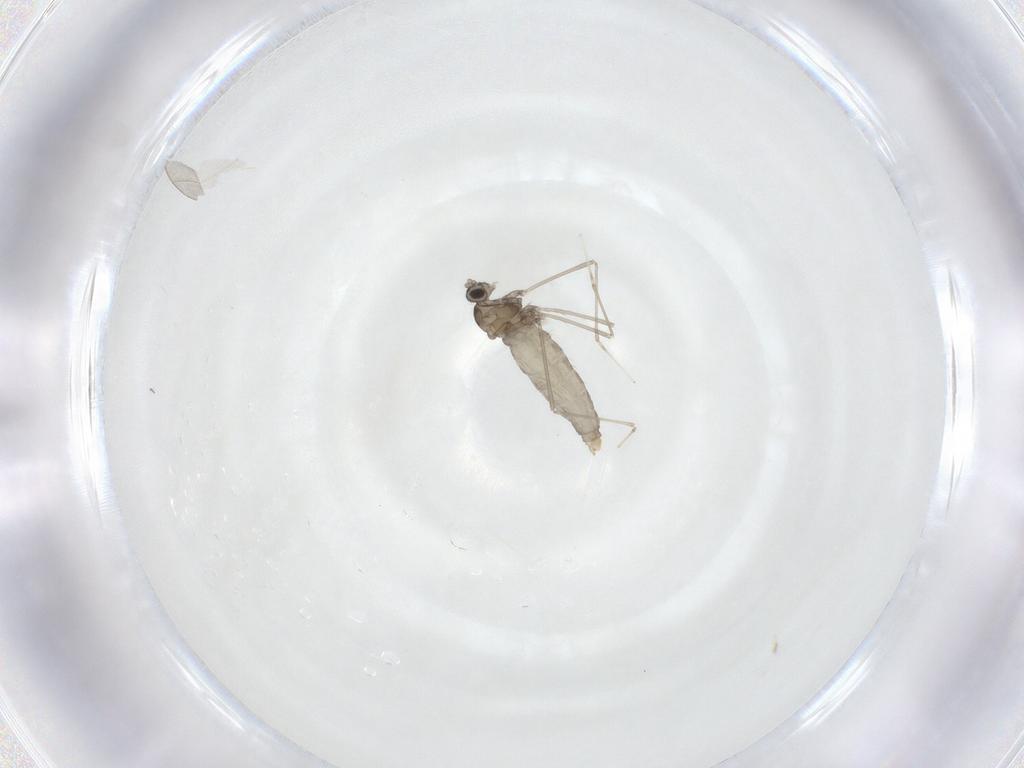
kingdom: Animalia
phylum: Arthropoda
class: Insecta
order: Diptera
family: Cecidomyiidae
